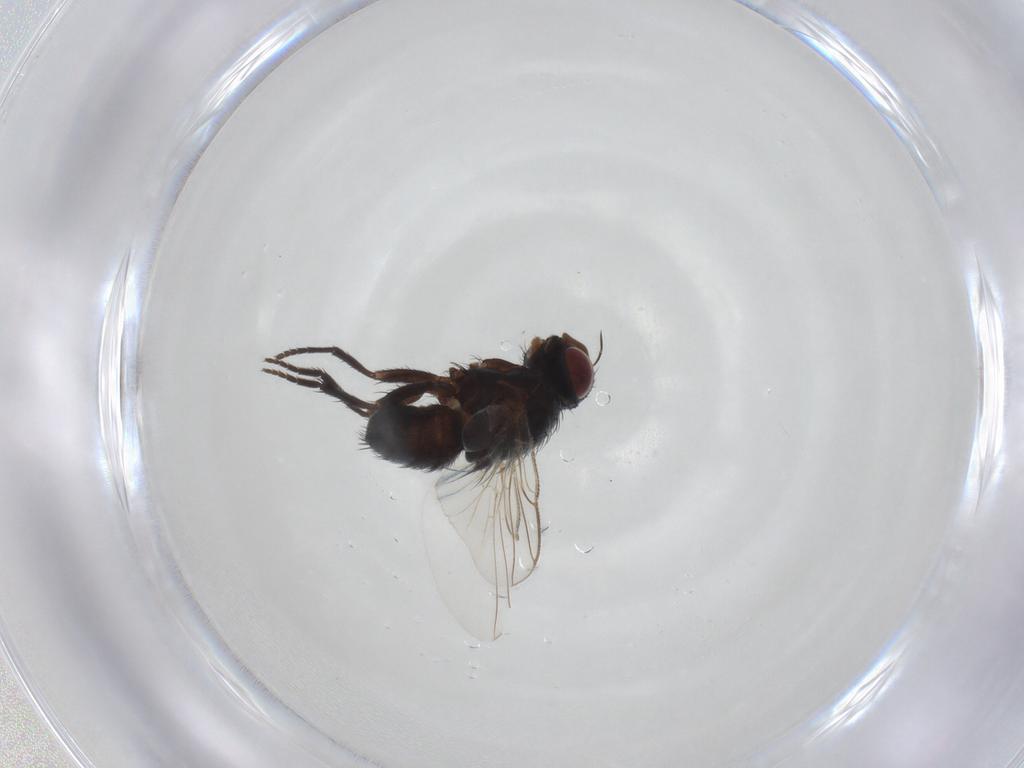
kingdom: Animalia
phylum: Arthropoda
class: Insecta
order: Diptera
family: Tachinidae
